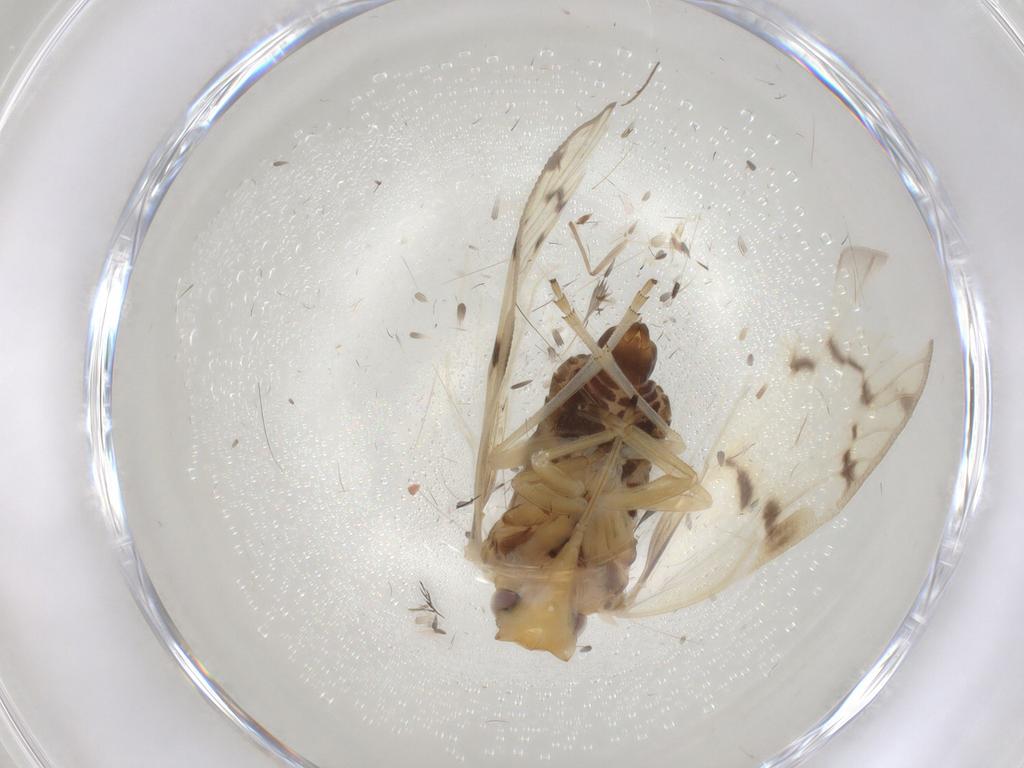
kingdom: Animalia
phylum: Arthropoda
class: Insecta
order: Hemiptera
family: Cixiidae
